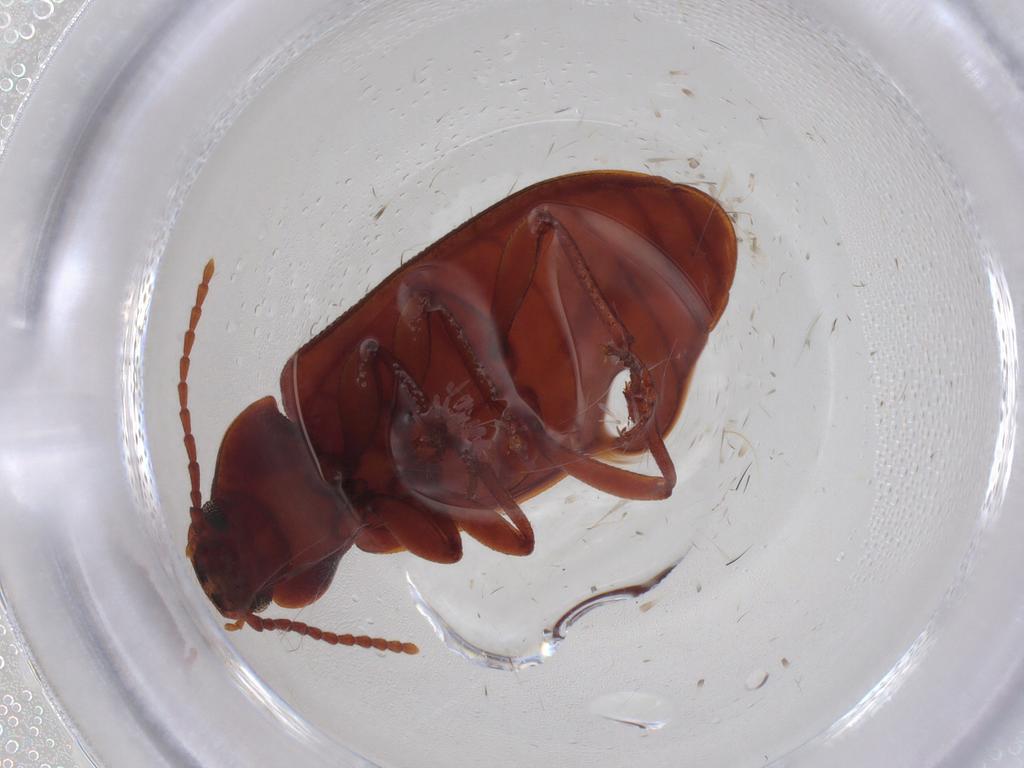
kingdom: Animalia
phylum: Arthropoda
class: Insecta
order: Coleoptera
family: Tenebrionidae
